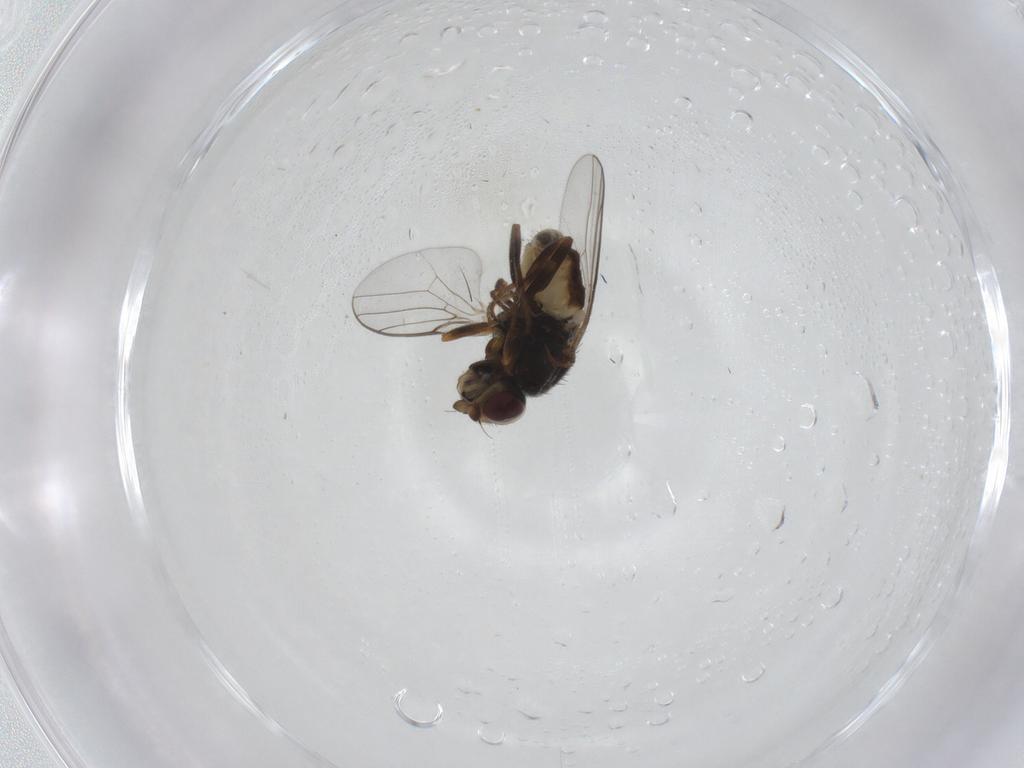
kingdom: Animalia
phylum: Arthropoda
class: Insecta
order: Diptera
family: Chloropidae
